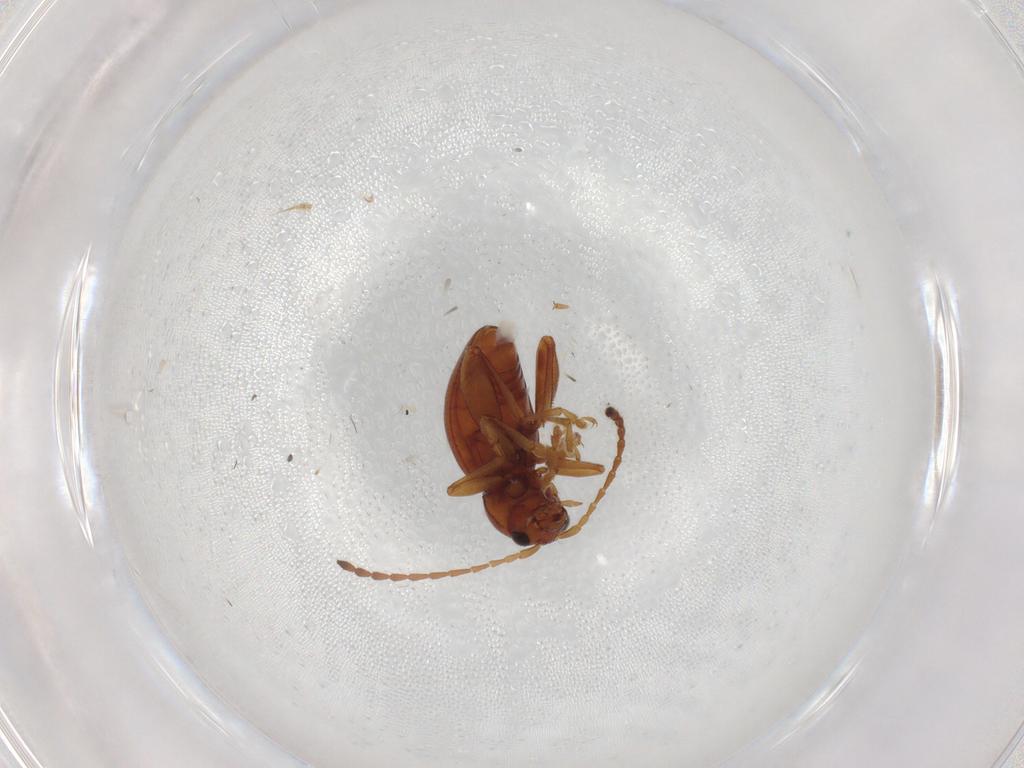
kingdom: Animalia
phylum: Arthropoda
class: Insecta
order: Coleoptera
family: Chrysomelidae
